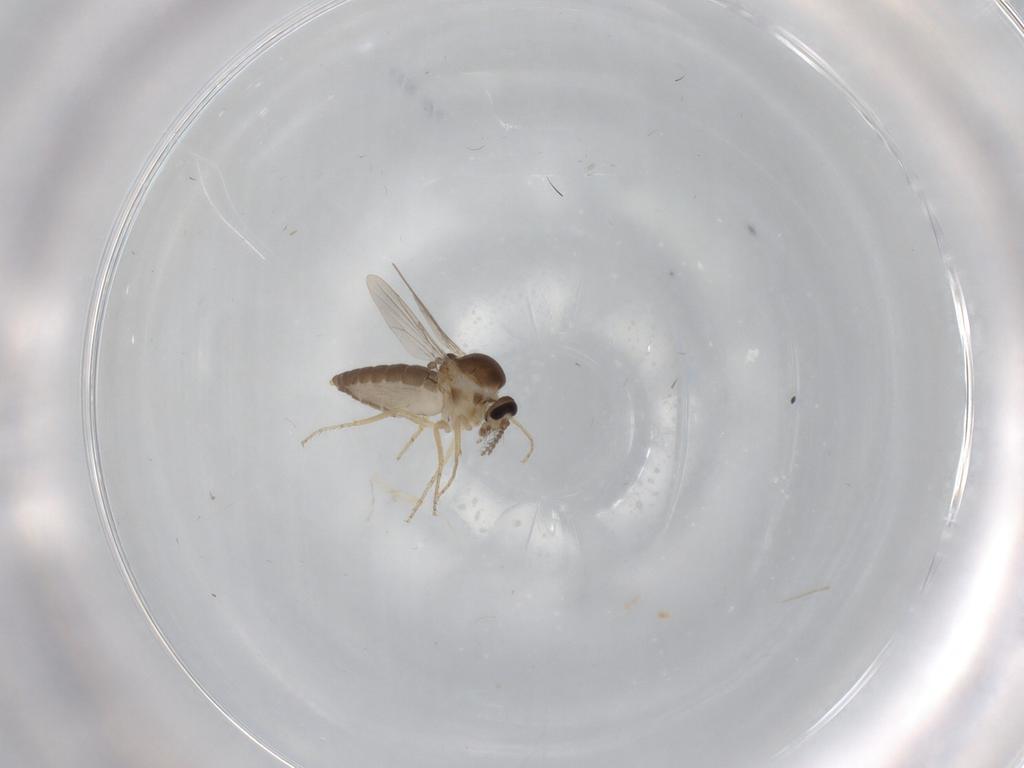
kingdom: Animalia
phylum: Arthropoda
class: Insecta
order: Diptera
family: Ceratopogonidae
